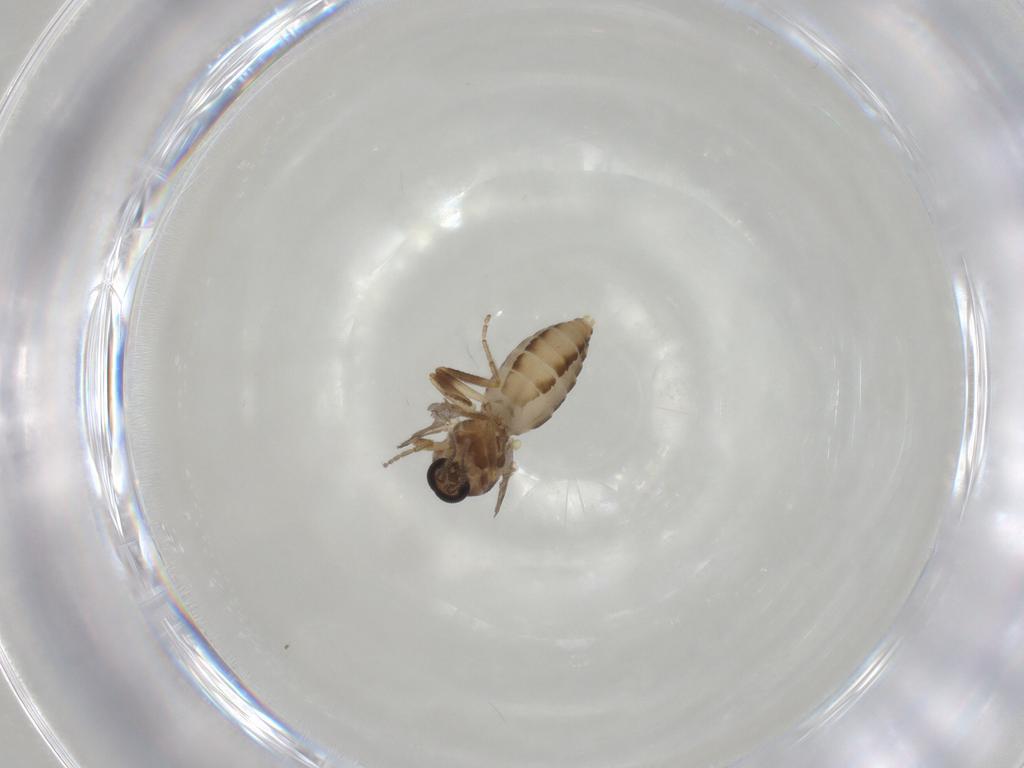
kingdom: Animalia
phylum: Arthropoda
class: Insecta
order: Diptera
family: Ceratopogonidae
